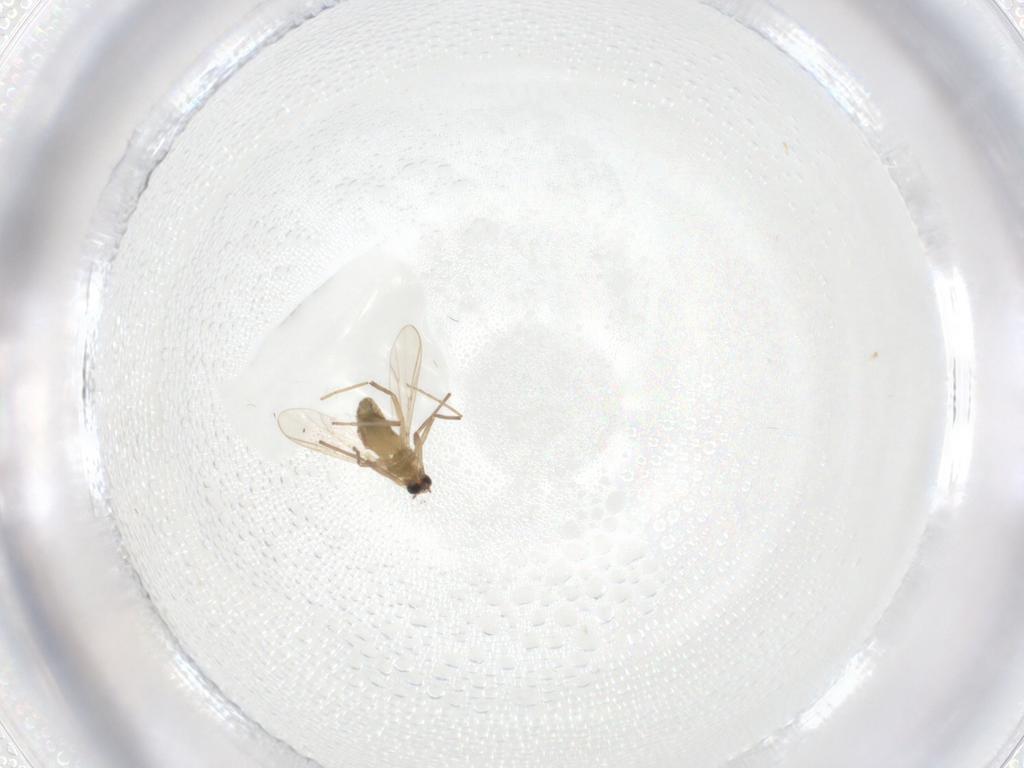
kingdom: Animalia
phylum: Arthropoda
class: Insecta
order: Diptera
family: Chironomidae
